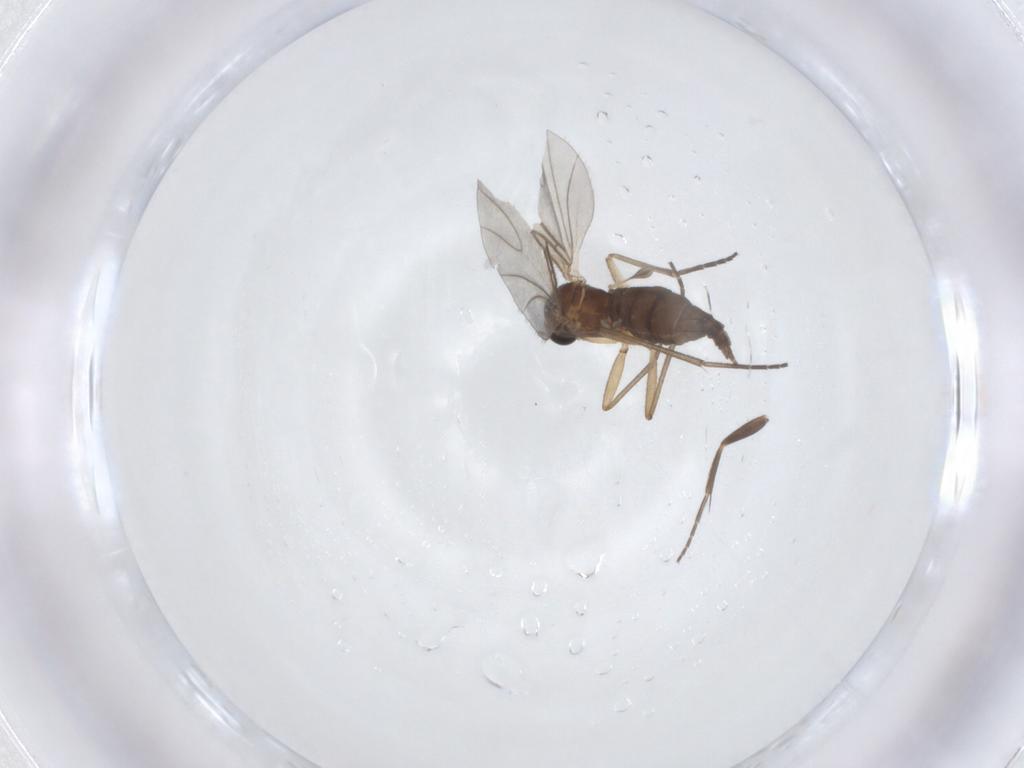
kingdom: Animalia
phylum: Arthropoda
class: Insecta
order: Diptera
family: Sciaridae
